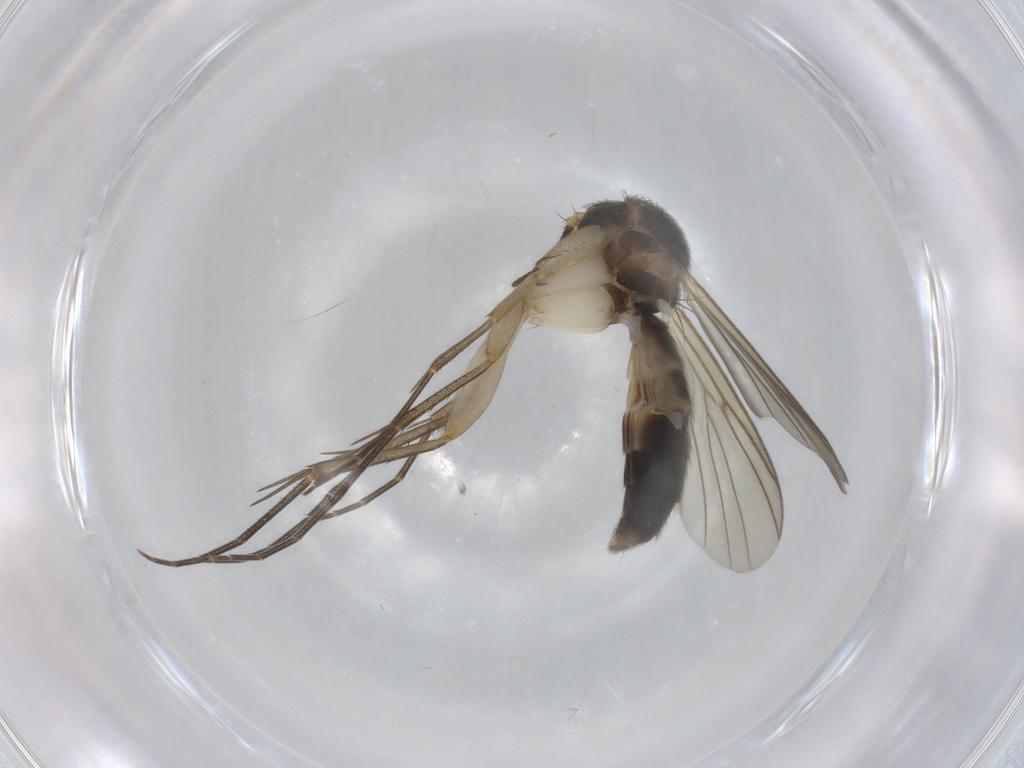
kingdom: Animalia
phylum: Arthropoda
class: Insecta
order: Diptera
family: Mycetophilidae
